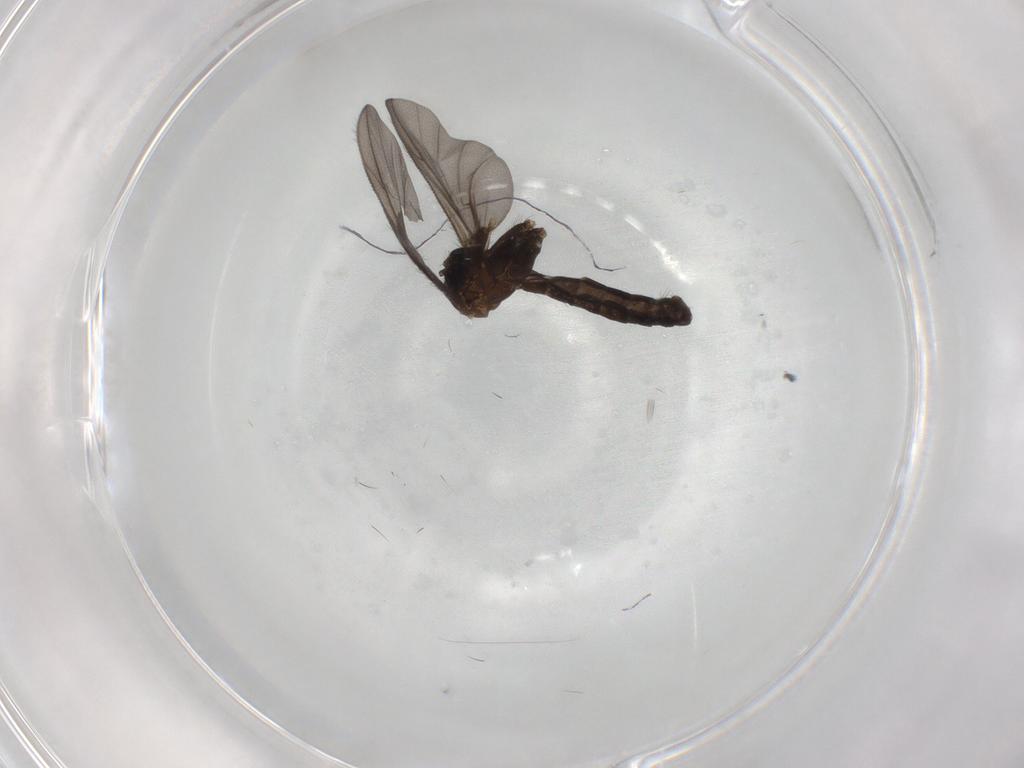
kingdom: Animalia
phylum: Arthropoda
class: Insecta
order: Diptera
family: Cecidomyiidae
